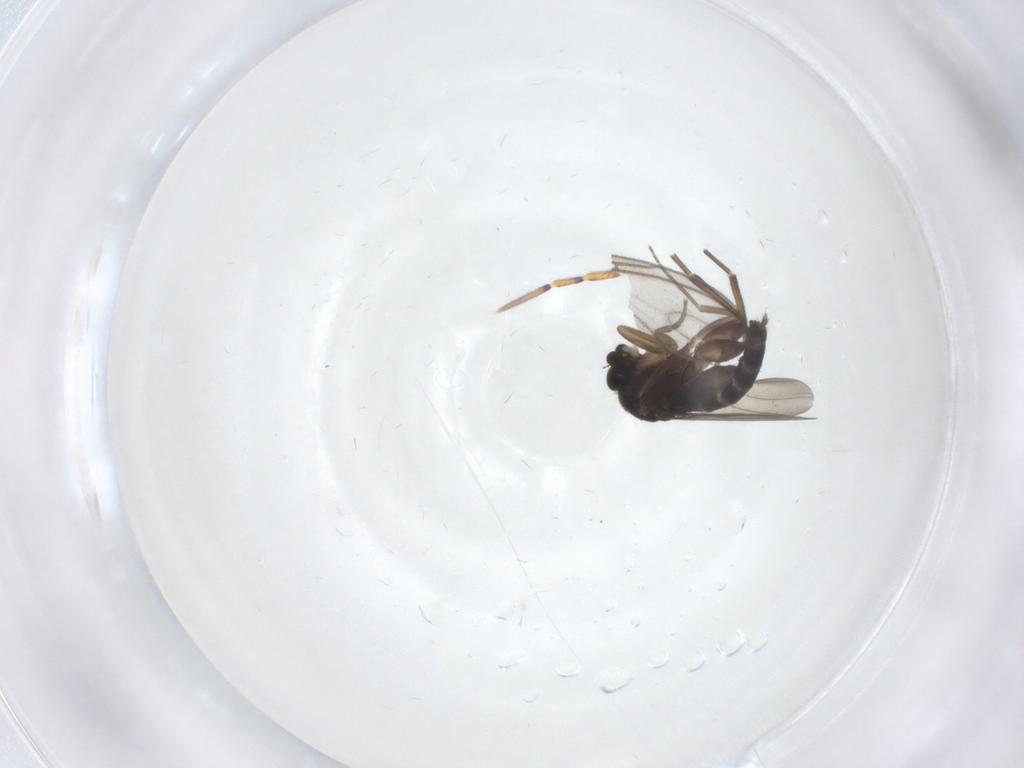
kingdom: Animalia
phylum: Arthropoda
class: Insecta
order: Diptera
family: Phoridae
